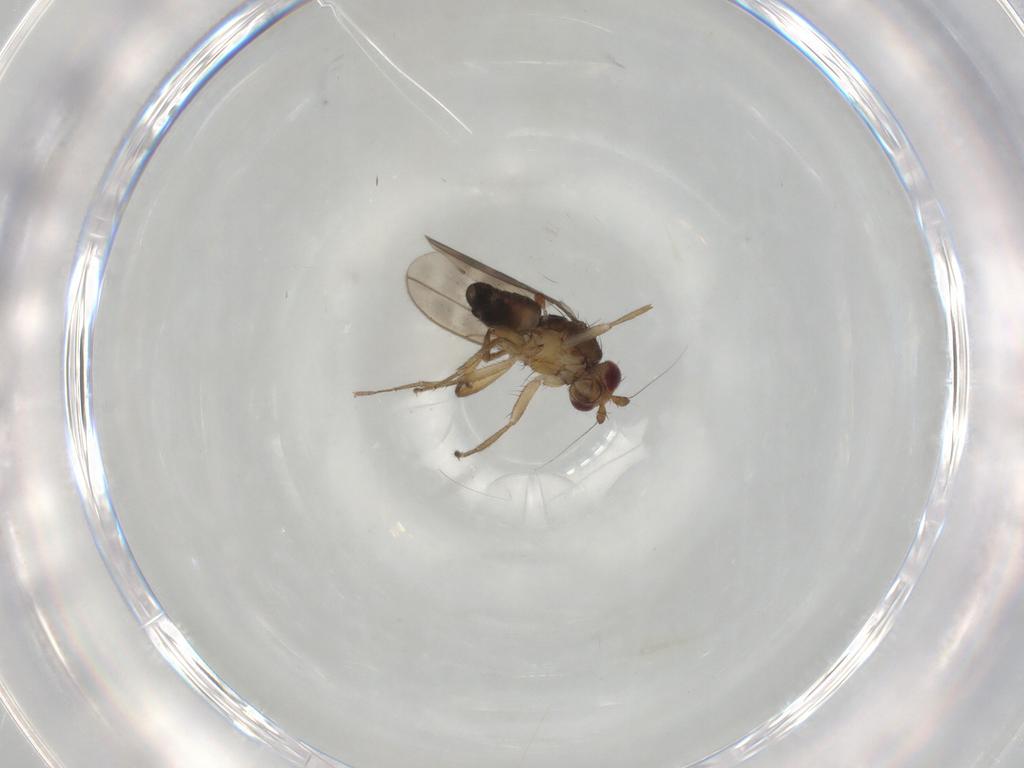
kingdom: Animalia
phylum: Arthropoda
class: Insecta
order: Diptera
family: Sphaeroceridae
